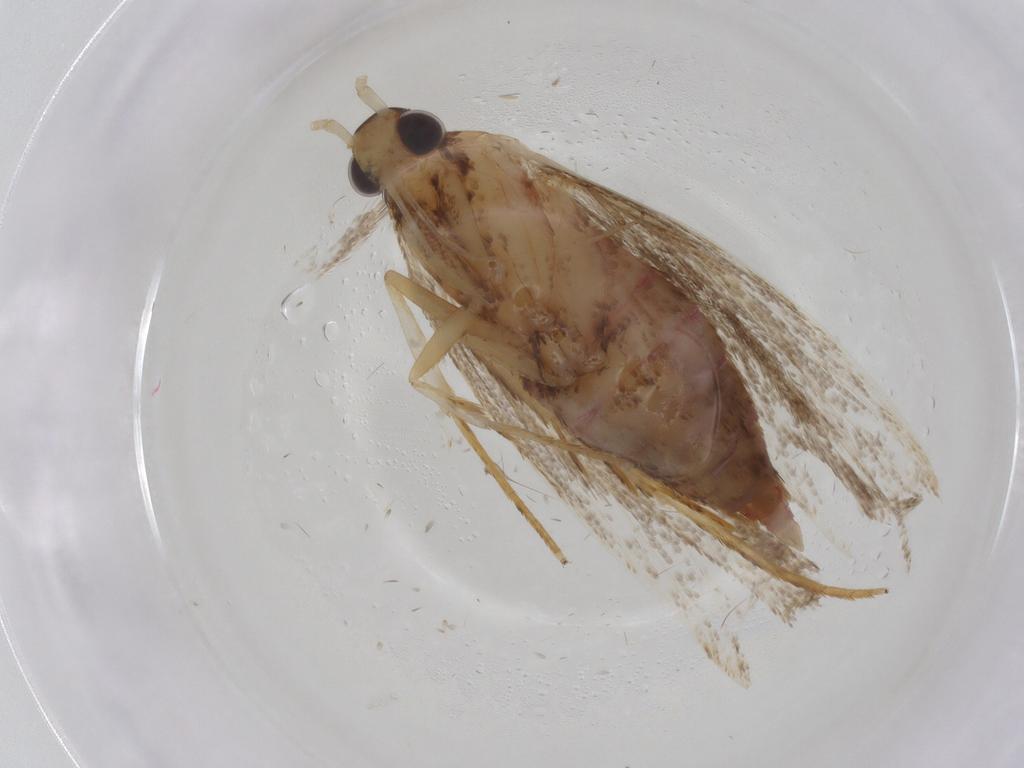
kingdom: Animalia
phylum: Arthropoda
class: Insecta
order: Lepidoptera
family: Lecithoceridae
